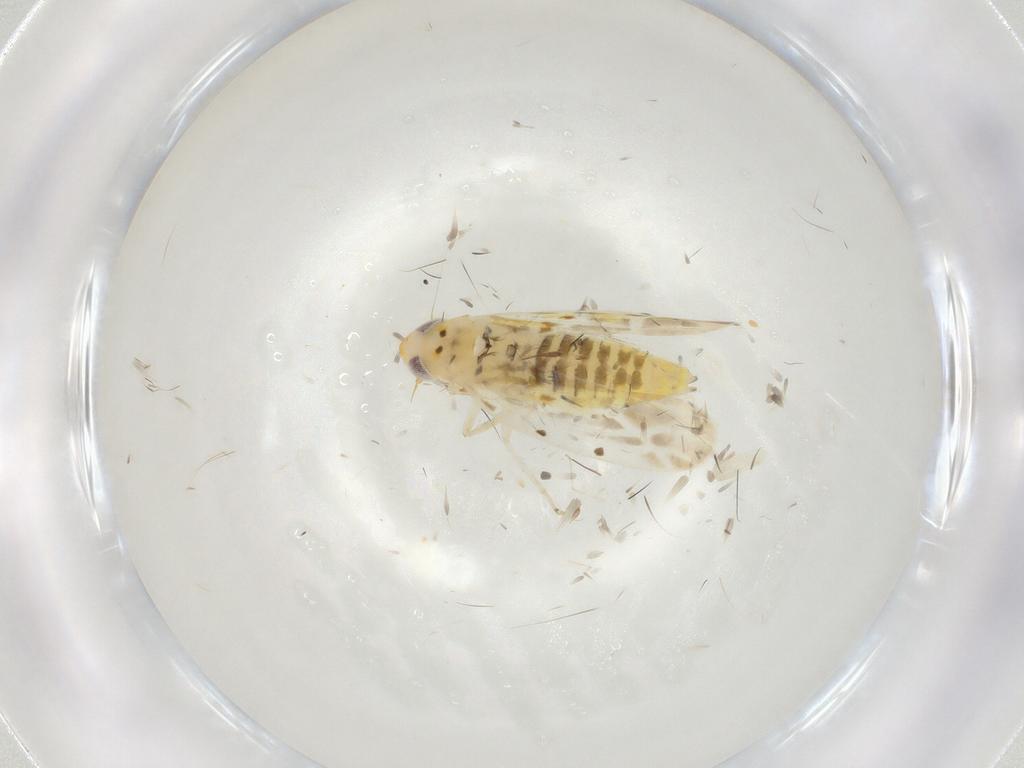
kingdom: Animalia
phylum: Arthropoda
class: Insecta
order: Hemiptera
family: Cicadellidae
